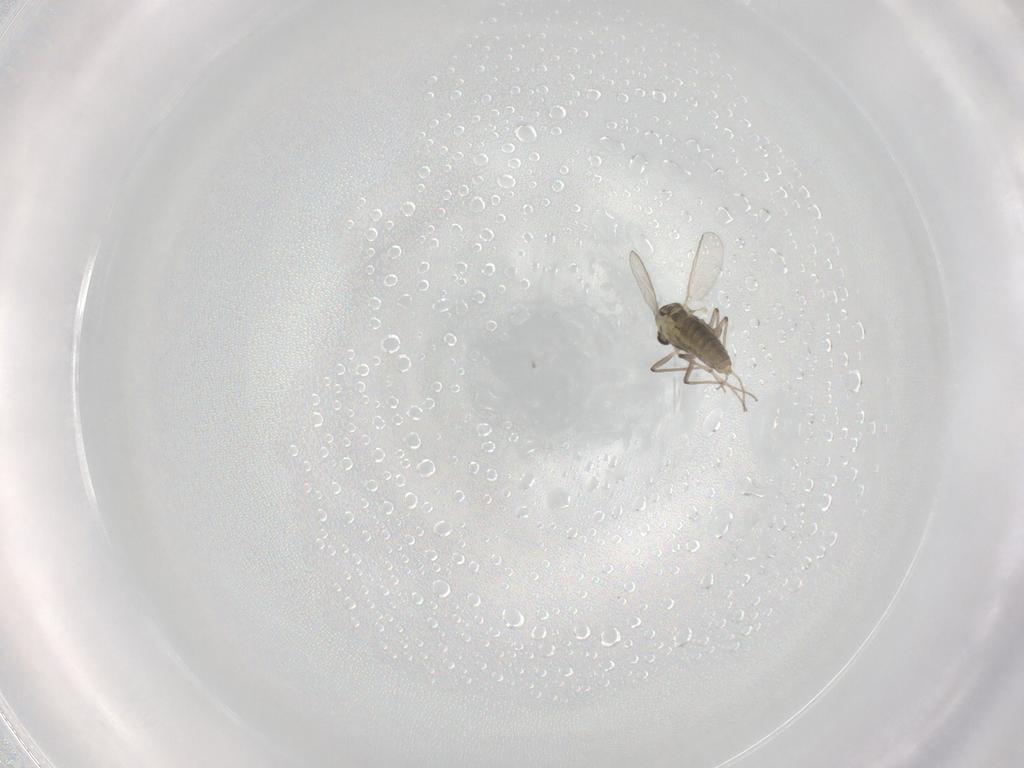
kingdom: Animalia
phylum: Arthropoda
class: Insecta
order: Diptera
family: Chironomidae
